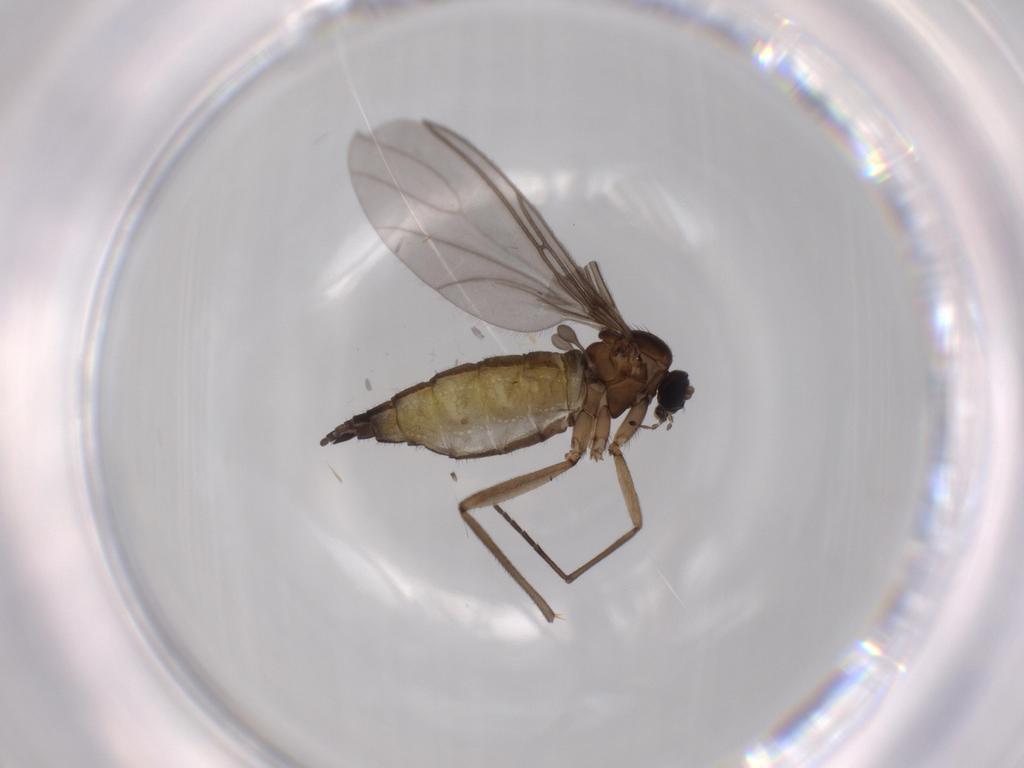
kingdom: Animalia
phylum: Arthropoda
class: Insecta
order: Diptera
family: Sciaridae
